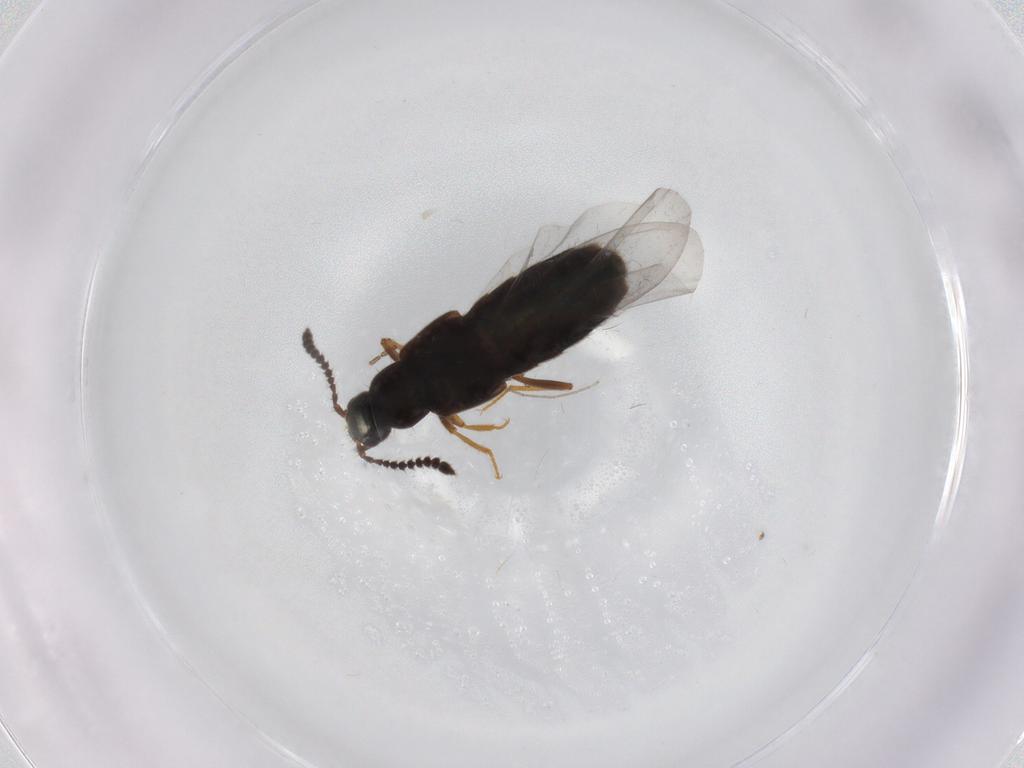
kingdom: Animalia
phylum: Arthropoda
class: Insecta
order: Coleoptera
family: Staphylinidae
